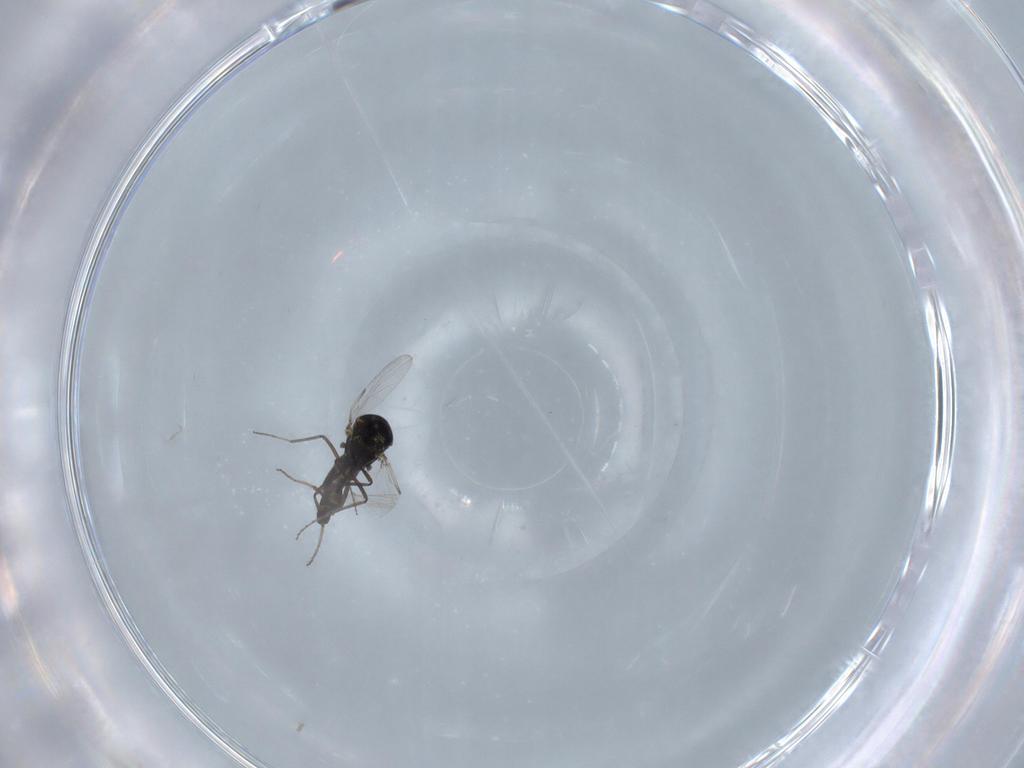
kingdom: Animalia
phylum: Arthropoda
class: Insecta
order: Diptera
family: Ceratopogonidae
